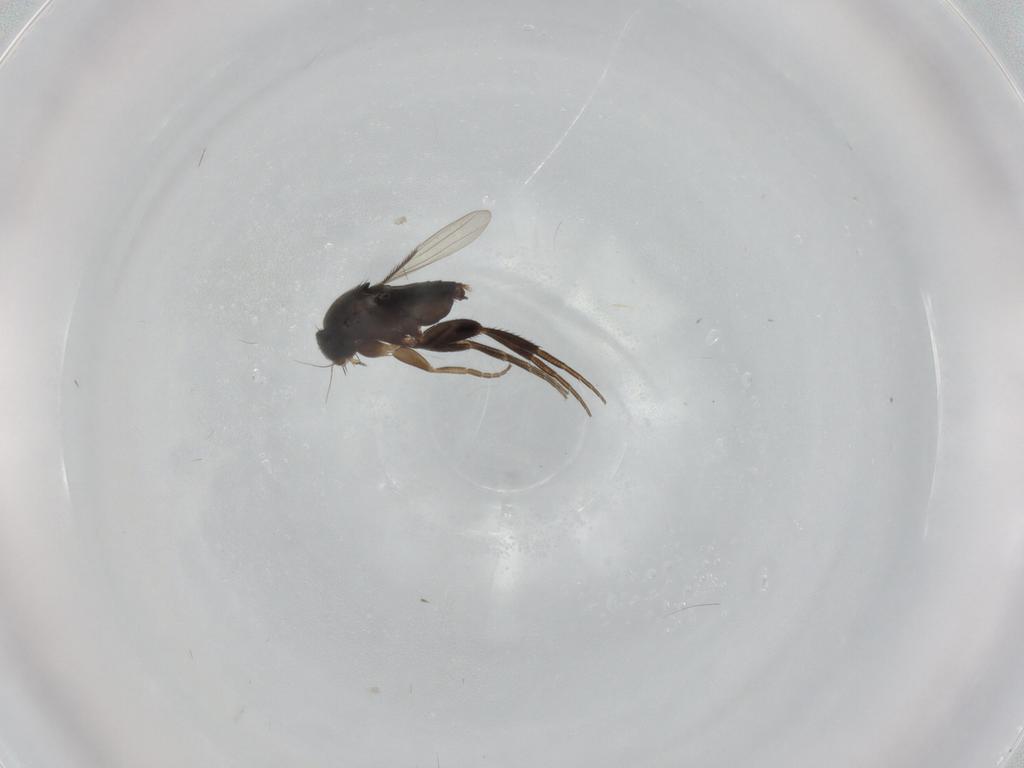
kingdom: Animalia
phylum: Arthropoda
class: Insecta
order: Diptera
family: Phoridae
